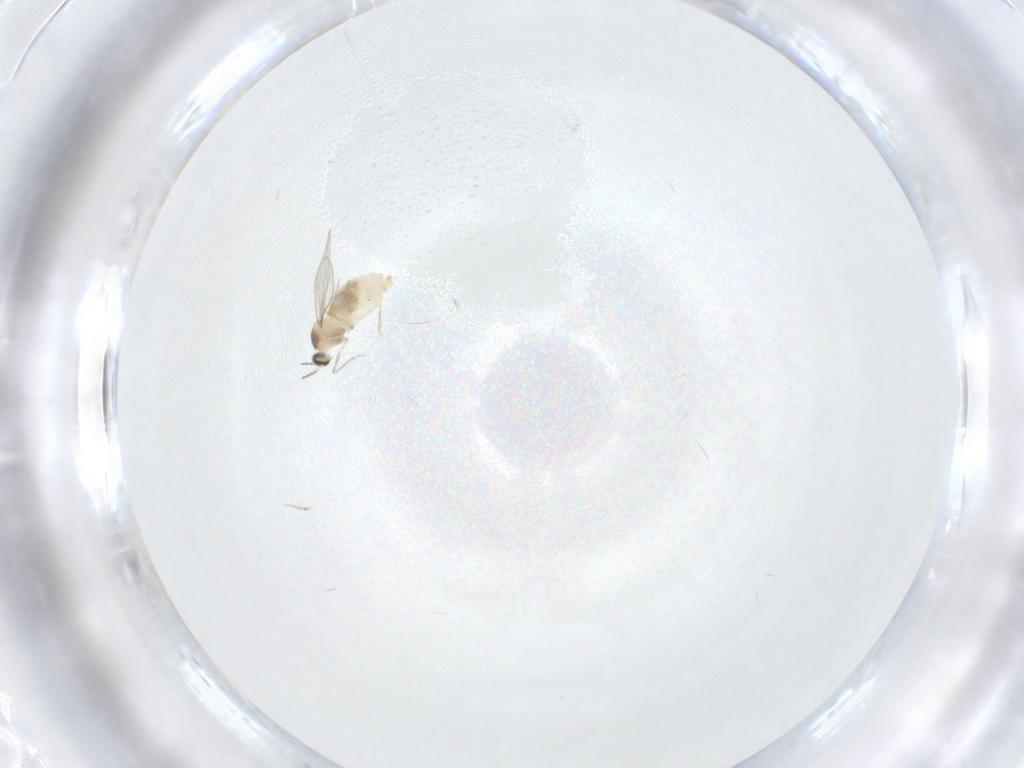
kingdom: Animalia
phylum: Arthropoda
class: Insecta
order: Diptera
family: Cecidomyiidae
